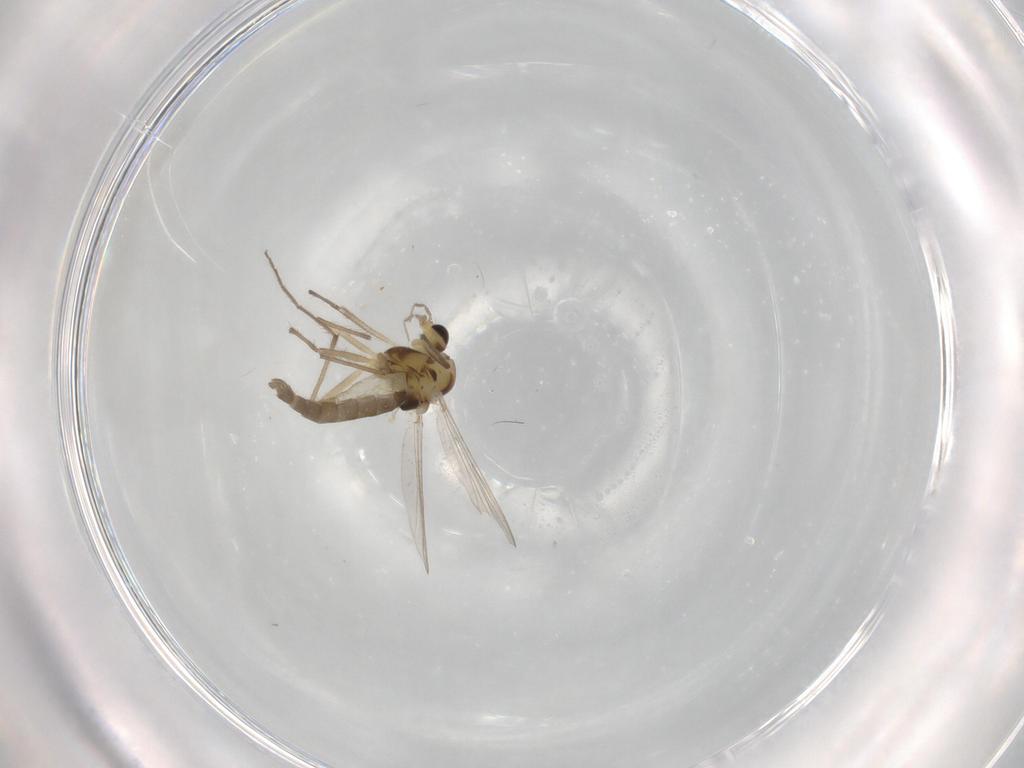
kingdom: Animalia
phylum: Arthropoda
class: Insecta
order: Diptera
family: Chironomidae
